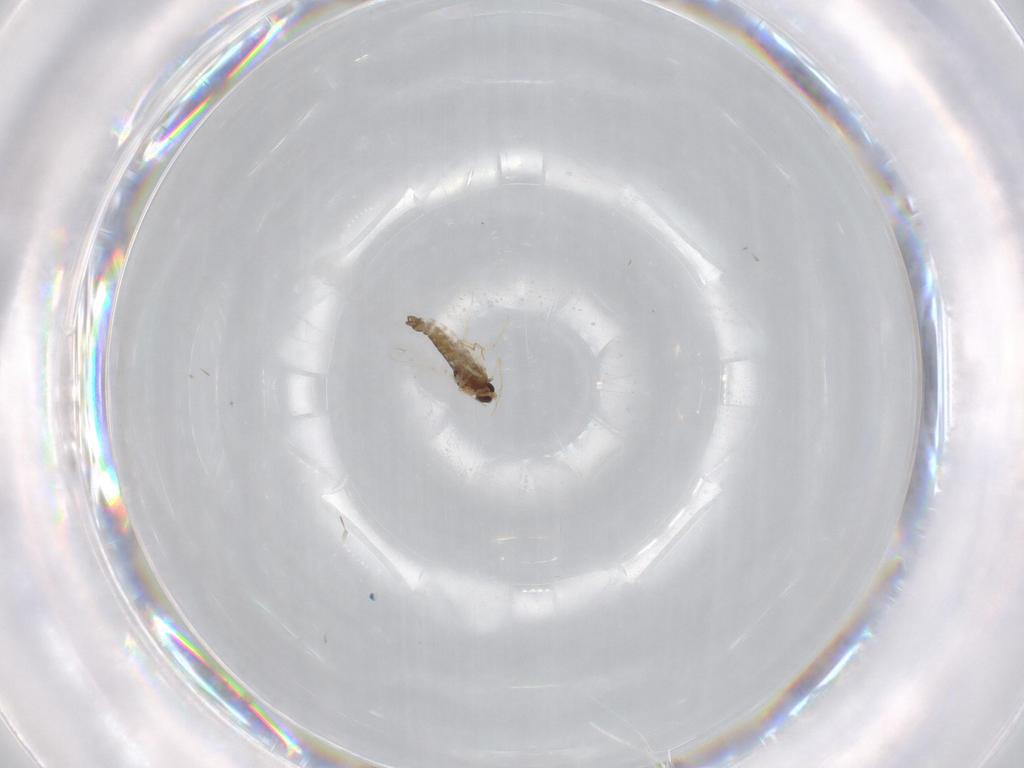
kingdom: Animalia
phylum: Arthropoda
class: Insecta
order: Diptera
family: Chironomidae
